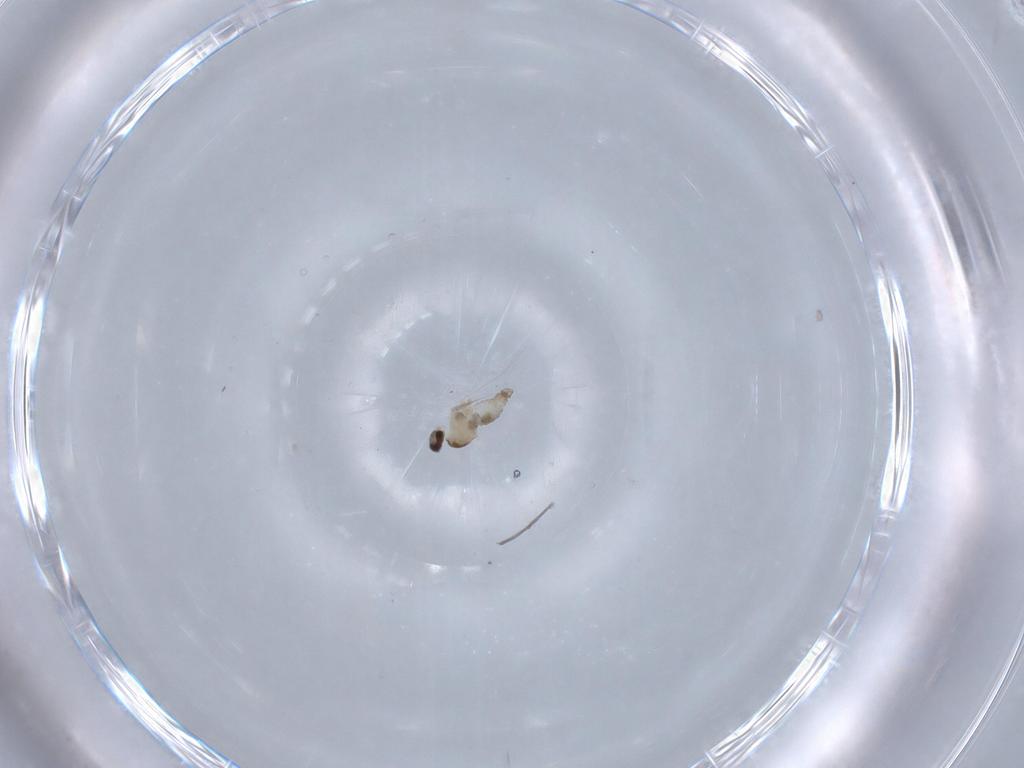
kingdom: Animalia
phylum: Arthropoda
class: Insecta
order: Diptera
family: Cecidomyiidae
